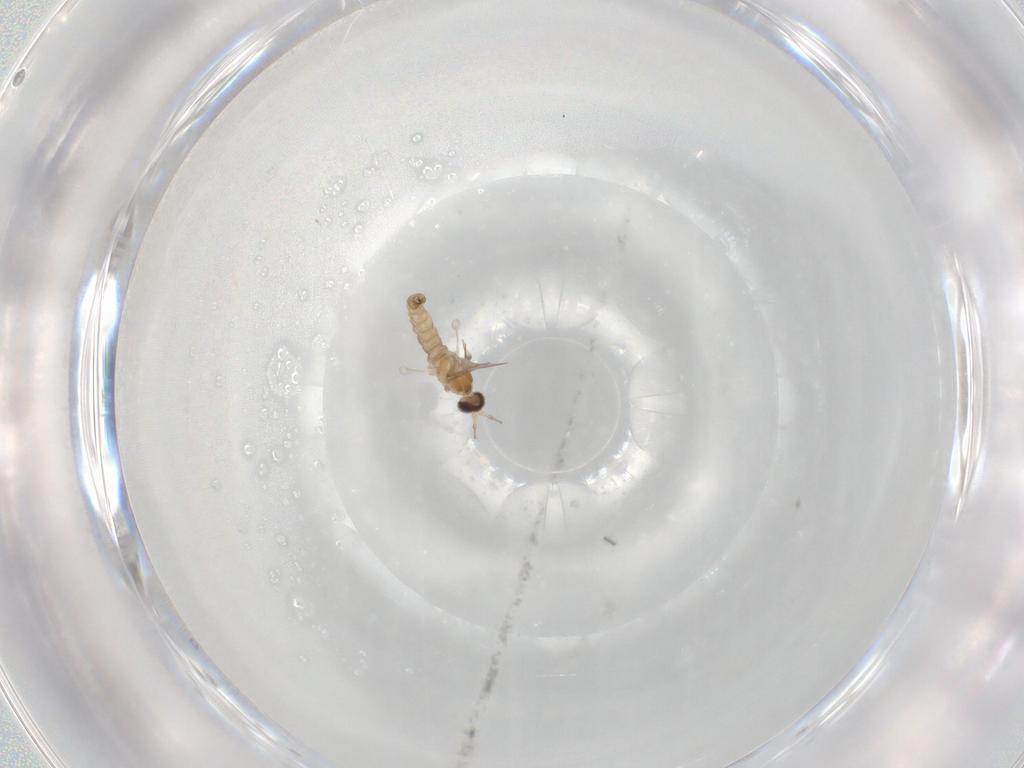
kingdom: Animalia
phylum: Arthropoda
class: Insecta
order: Diptera
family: Cecidomyiidae
